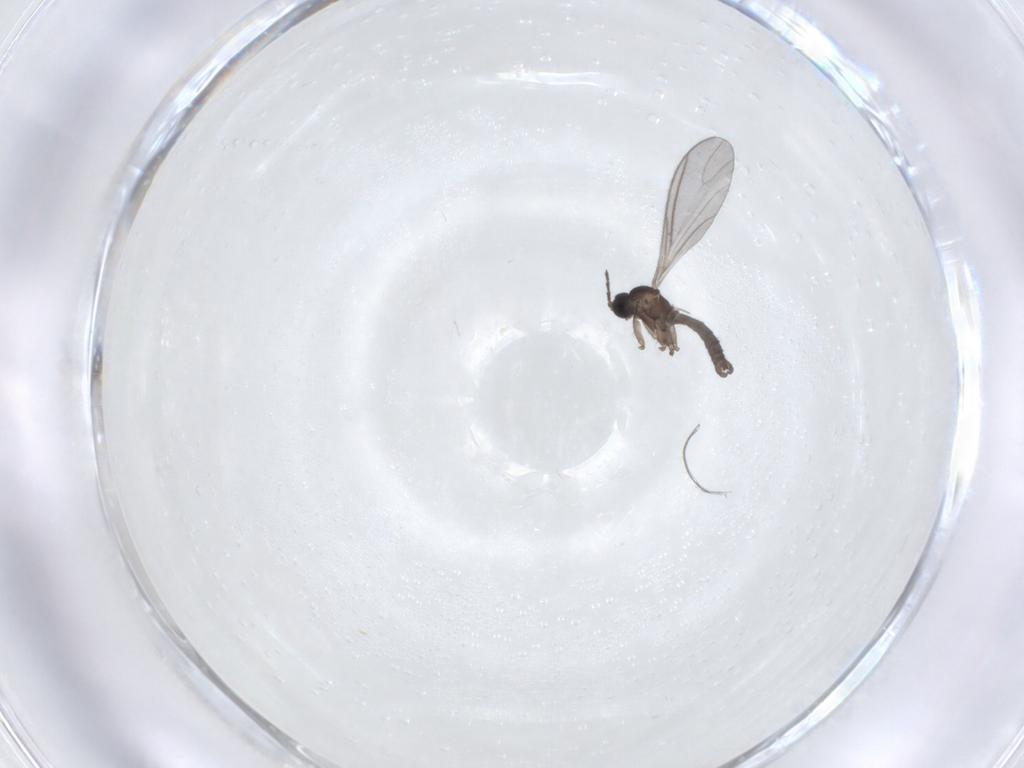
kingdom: Animalia
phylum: Arthropoda
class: Insecta
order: Diptera
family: Sciaridae
